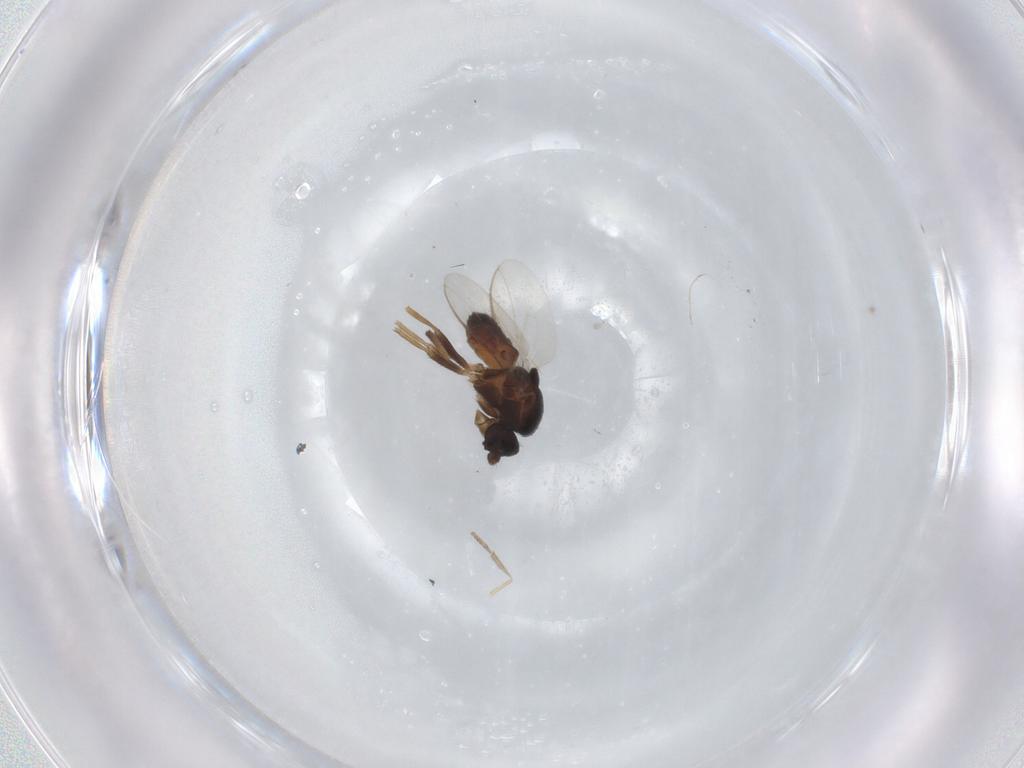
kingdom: Animalia
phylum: Arthropoda
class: Insecta
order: Diptera
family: Sphaeroceridae
